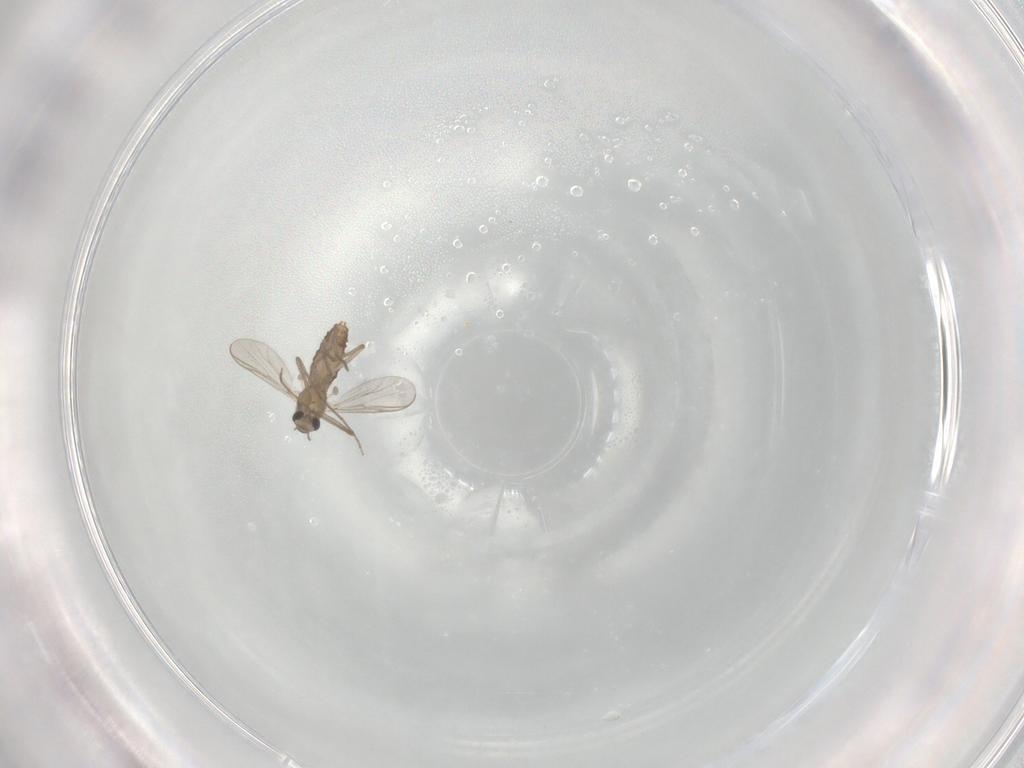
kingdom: Animalia
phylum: Arthropoda
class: Insecta
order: Diptera
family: Chironomidae
